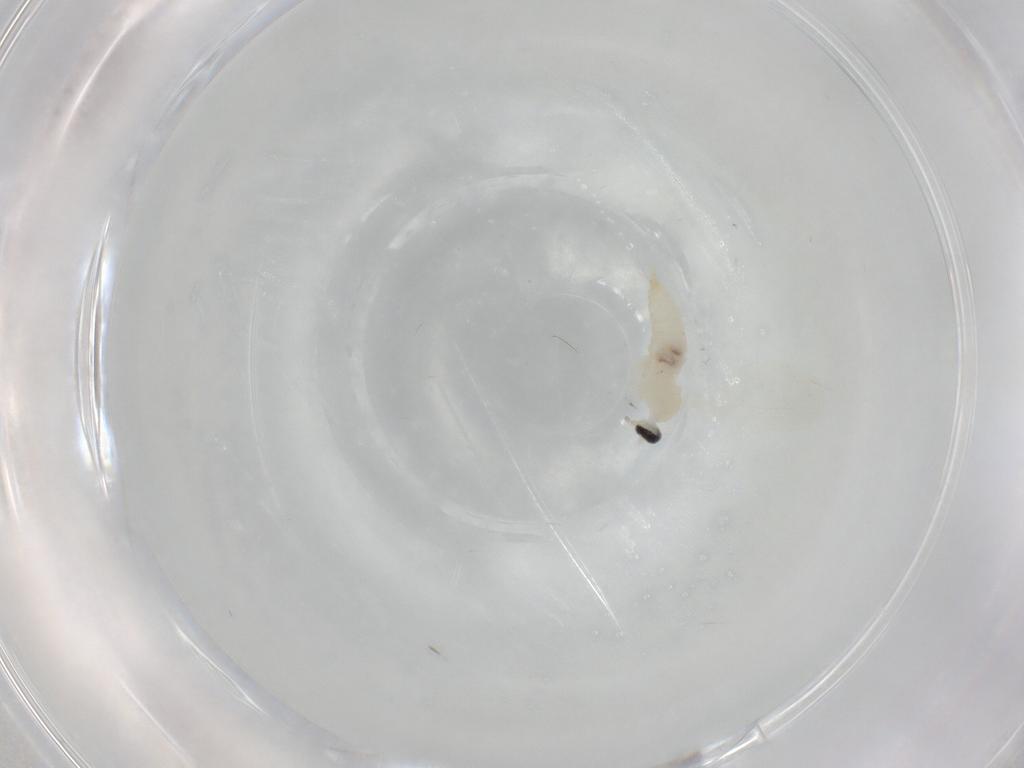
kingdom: Animalia
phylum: Arthropoda
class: Insecta
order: Diptera
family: Cecidomyiidae
